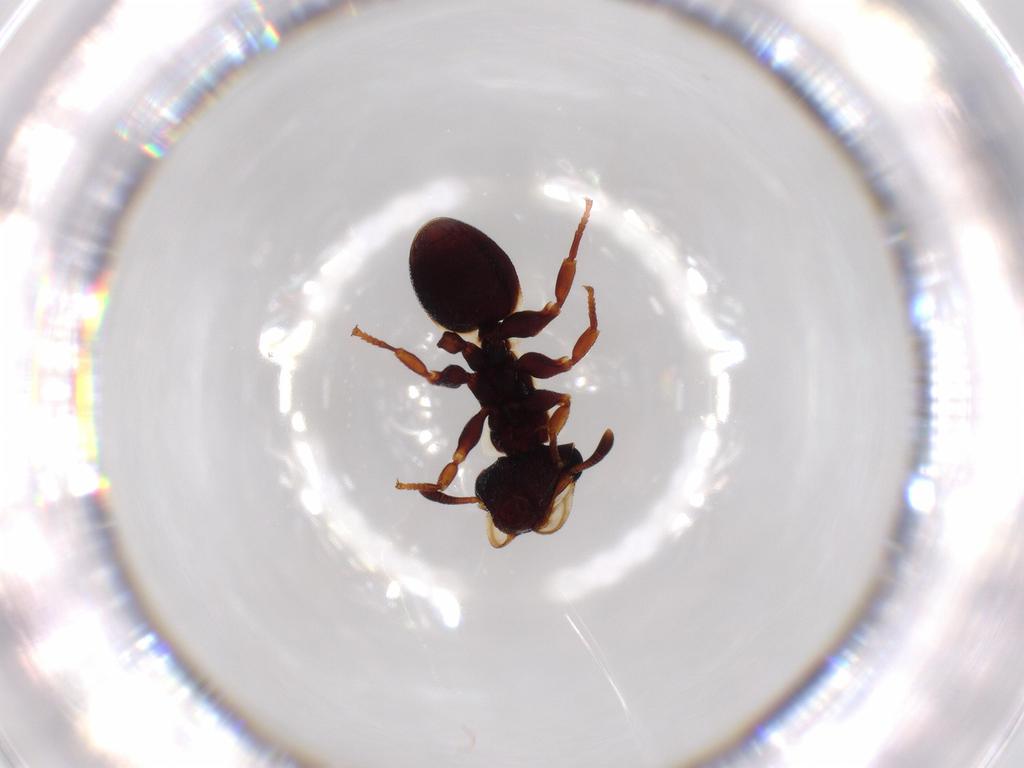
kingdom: Animalia
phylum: Arthropoda
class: Insecta
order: Hymenoptera
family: Formicidae
